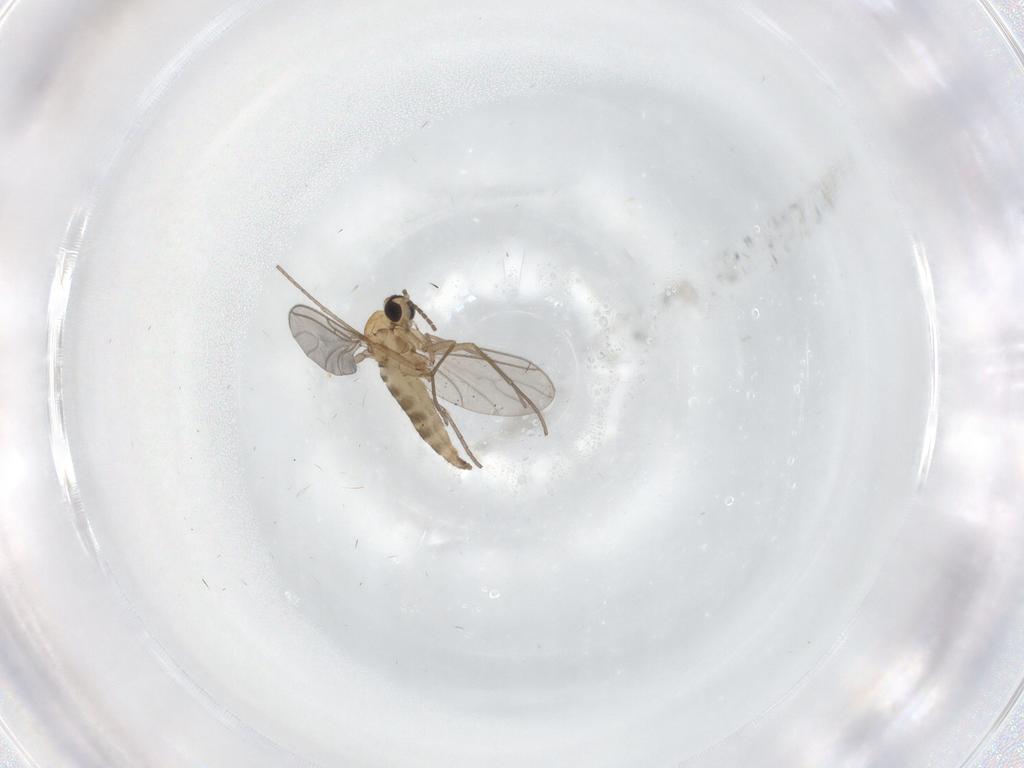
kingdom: Animalia
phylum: Arthropoda
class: Insecta
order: Diptera
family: Sciaridae
